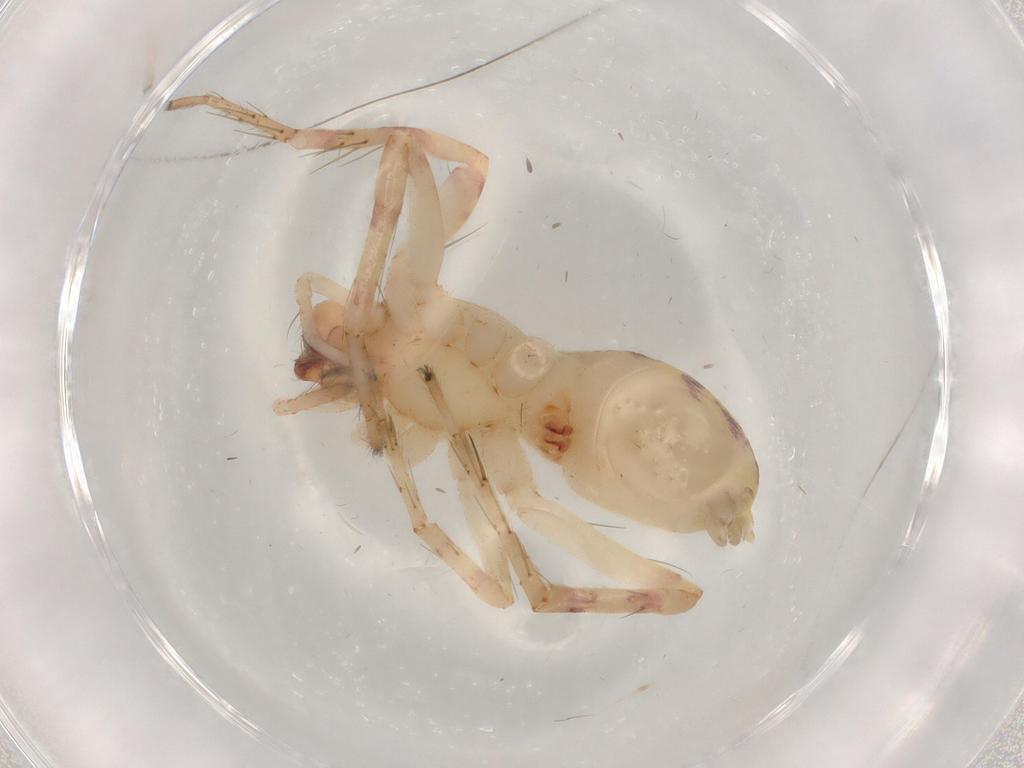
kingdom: Animalia
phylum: Arthropoda
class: Arachnida
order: Araneae
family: Anyphaenidae
